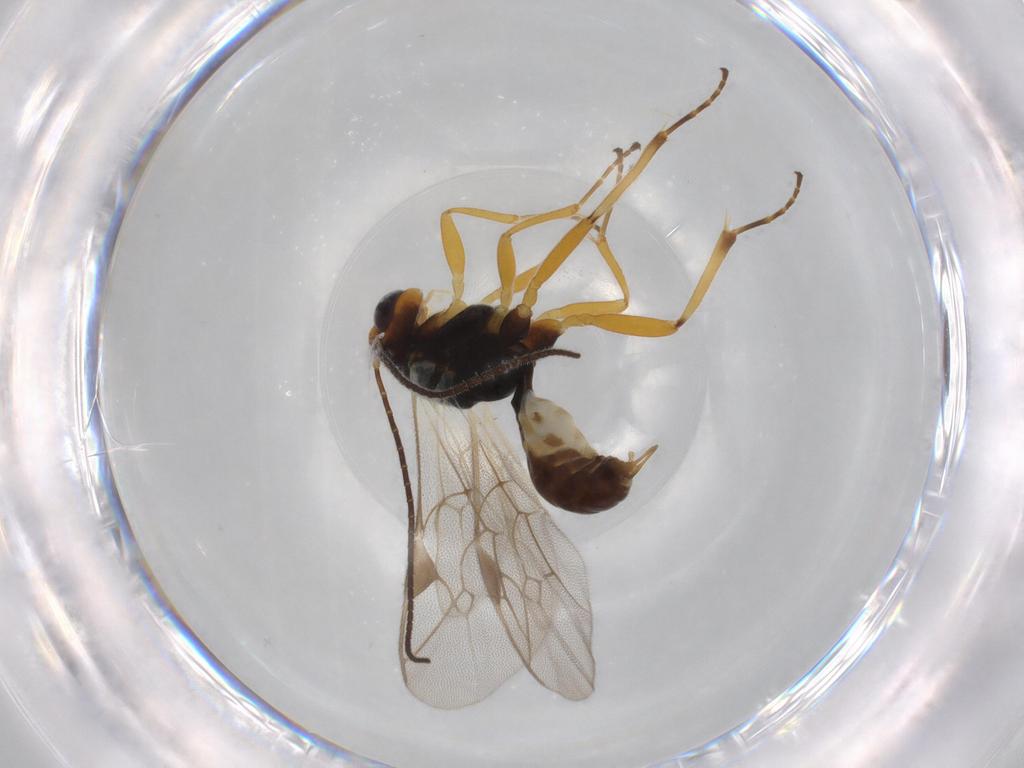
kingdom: Animalia
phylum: Arthropoda
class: Insecta
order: Hymenoptera
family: Ichneumonidae
